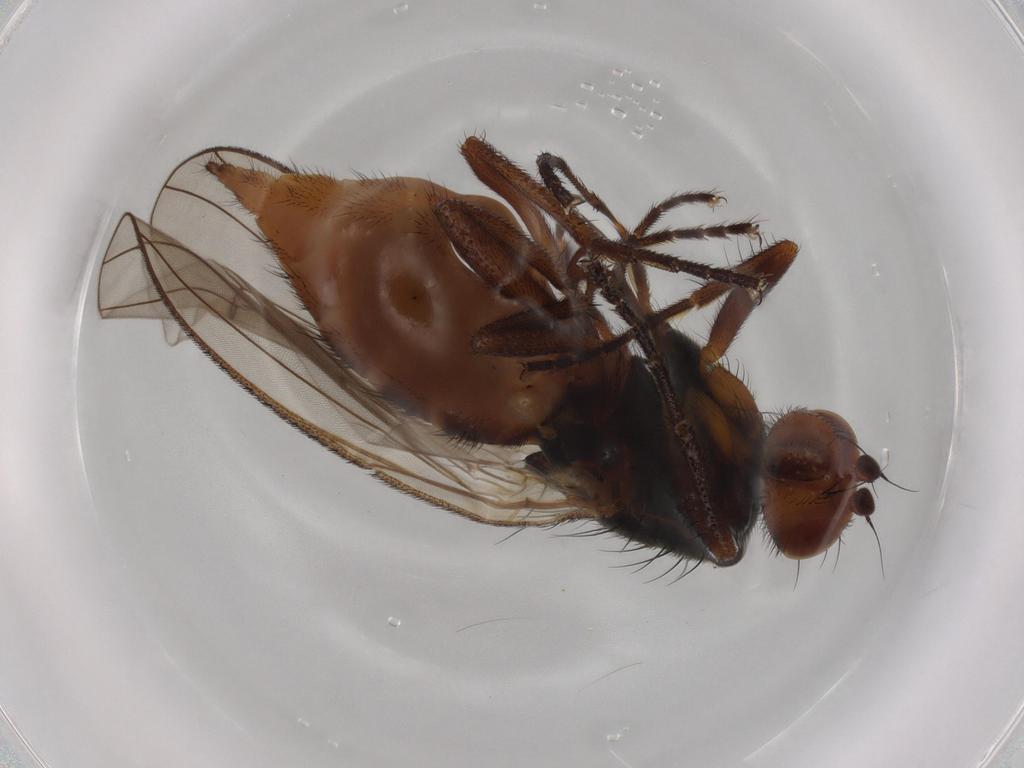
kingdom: Animalia
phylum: Arthropoda
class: Insecta
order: Diptera
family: Heleomyzidae
